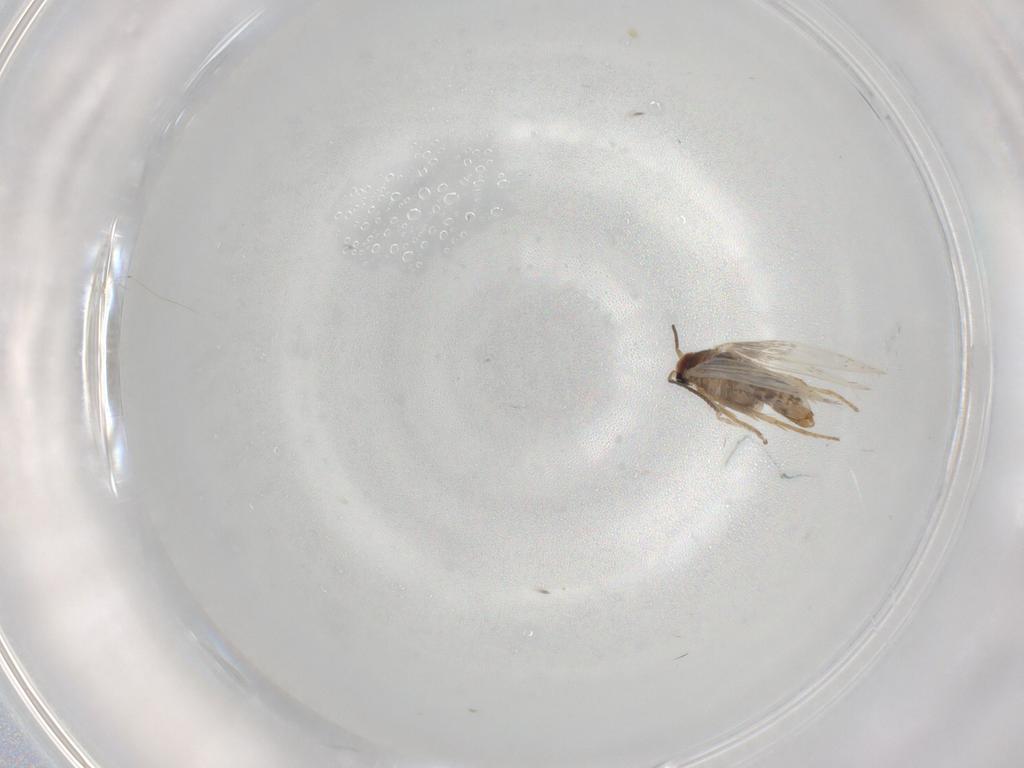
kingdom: Animalia
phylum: Arthropoda
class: Insecta
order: Lepidoptera
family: Nepticulidae
